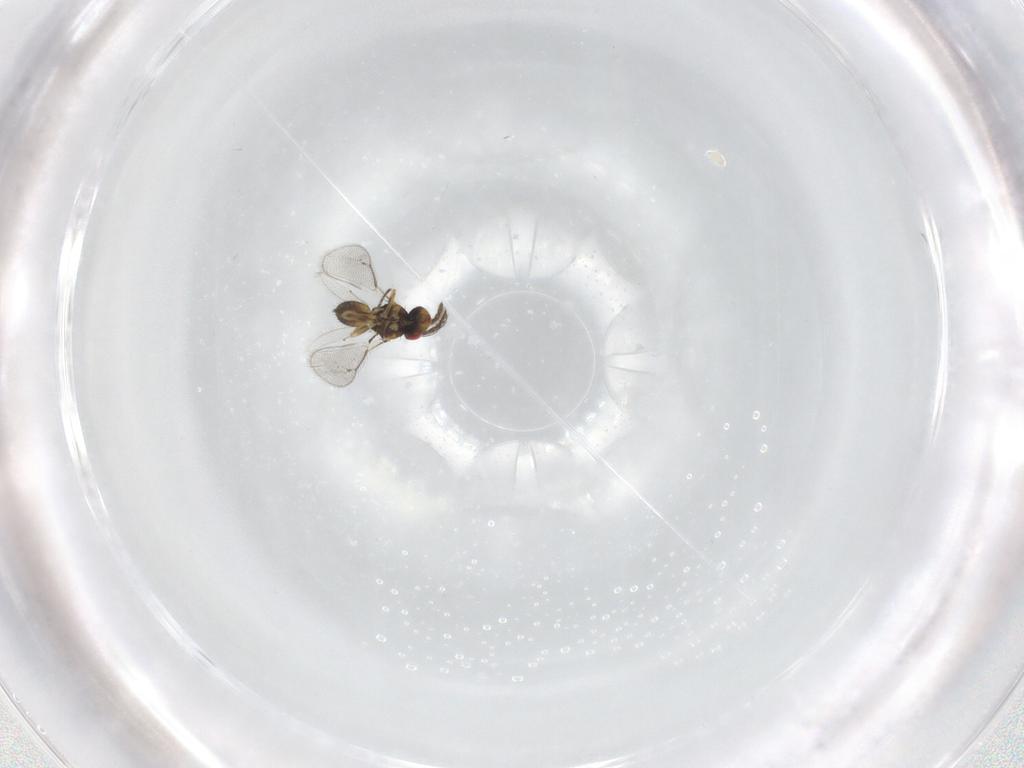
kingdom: Animalia
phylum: Arthropoda
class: Insecta
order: Hymenoptera
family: Eulophidae
